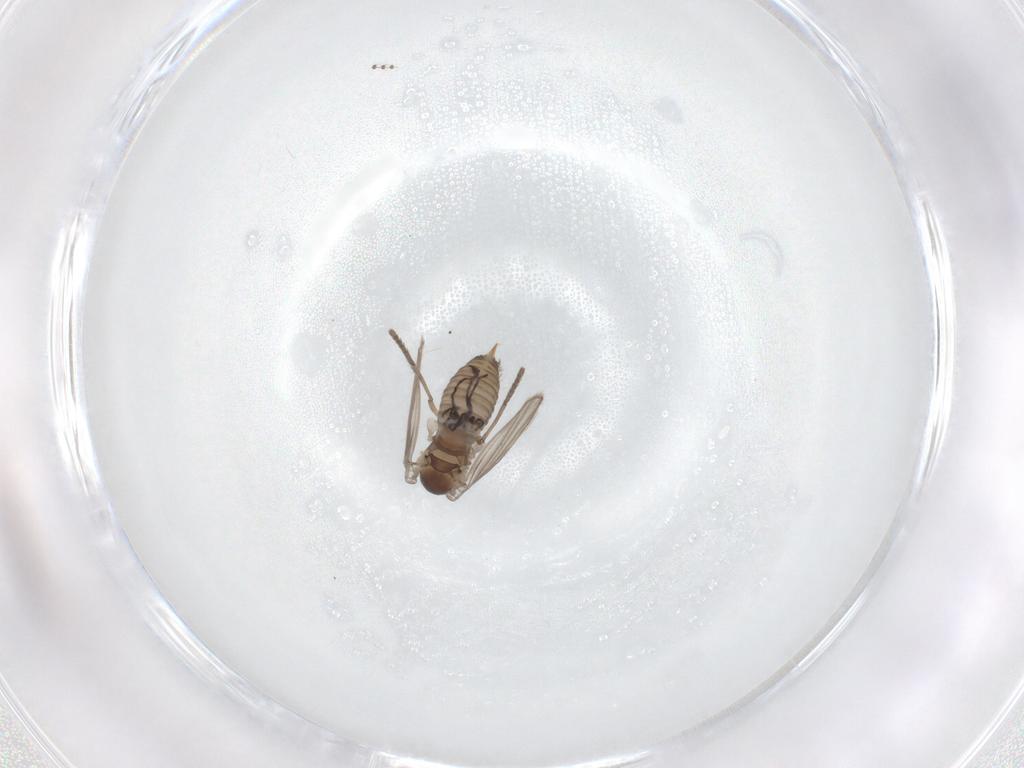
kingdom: Animalia
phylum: Arthropoda
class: Insecta
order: Diptera
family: Psychodidae
